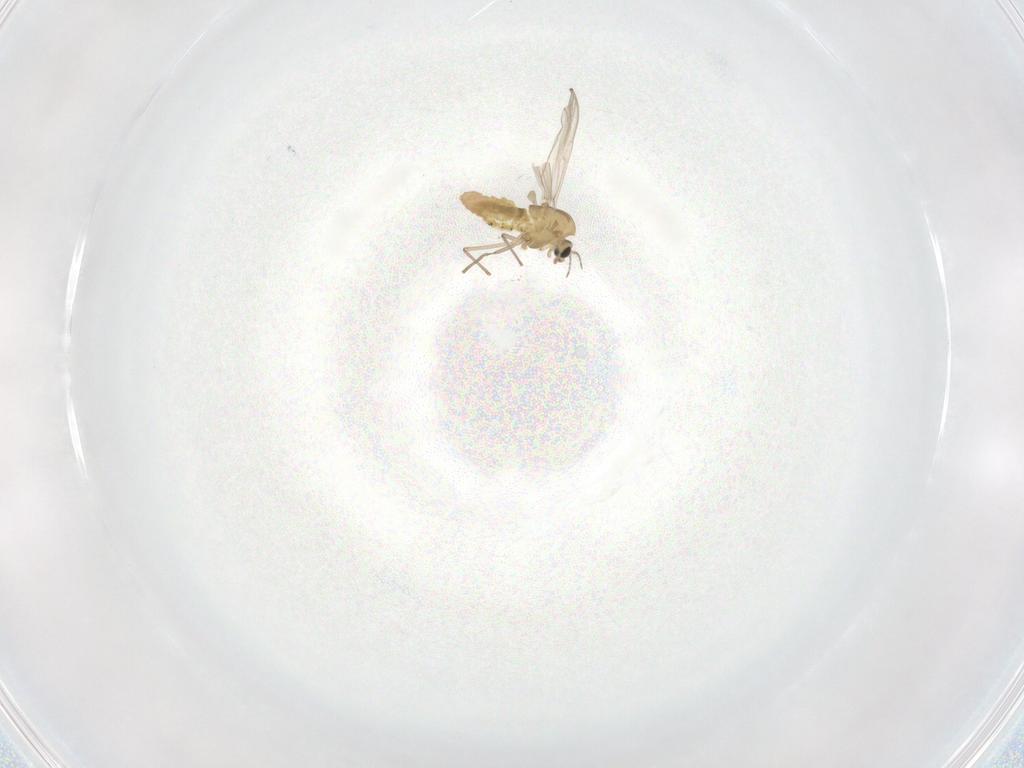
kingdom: Animalia
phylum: Arthropoda
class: Insecta
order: Diptera
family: Chironomidae
